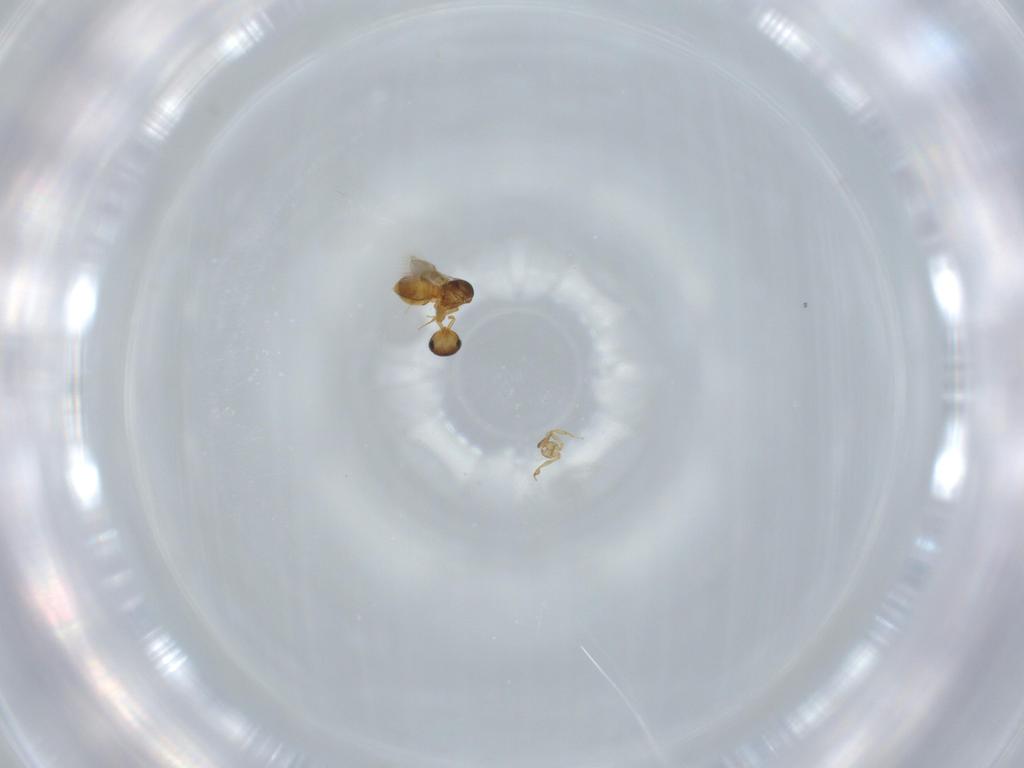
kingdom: Animalia
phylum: Arthropoda
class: Insecta
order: Hymenoptera
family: Scelionidae
